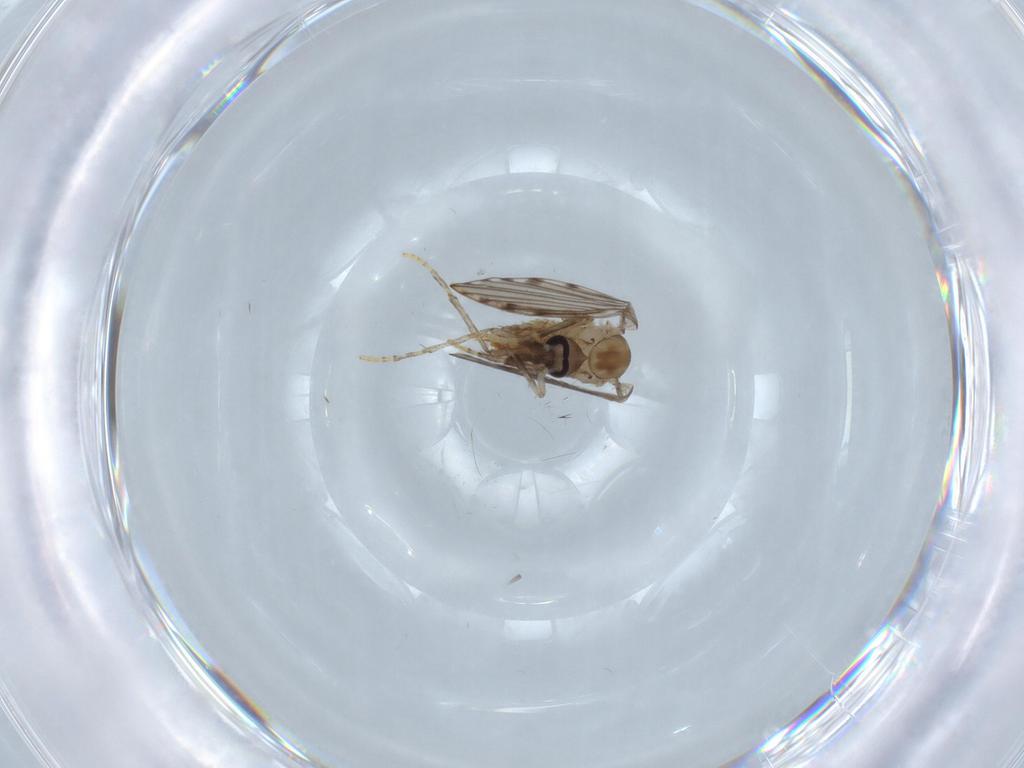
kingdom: Animalia
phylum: Arthropoda
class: Insecta
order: Diptera
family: Psychodidae
